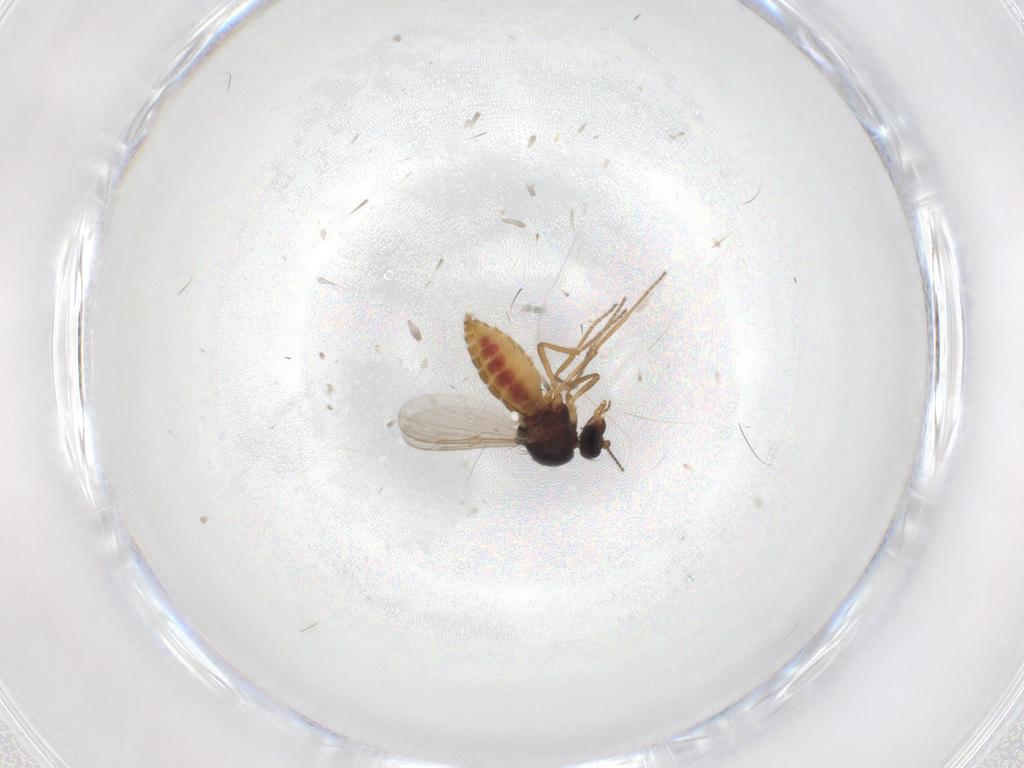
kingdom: Animalia
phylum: Arthropoda
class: Insecta
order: Diptera
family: Ceratopogonidae
